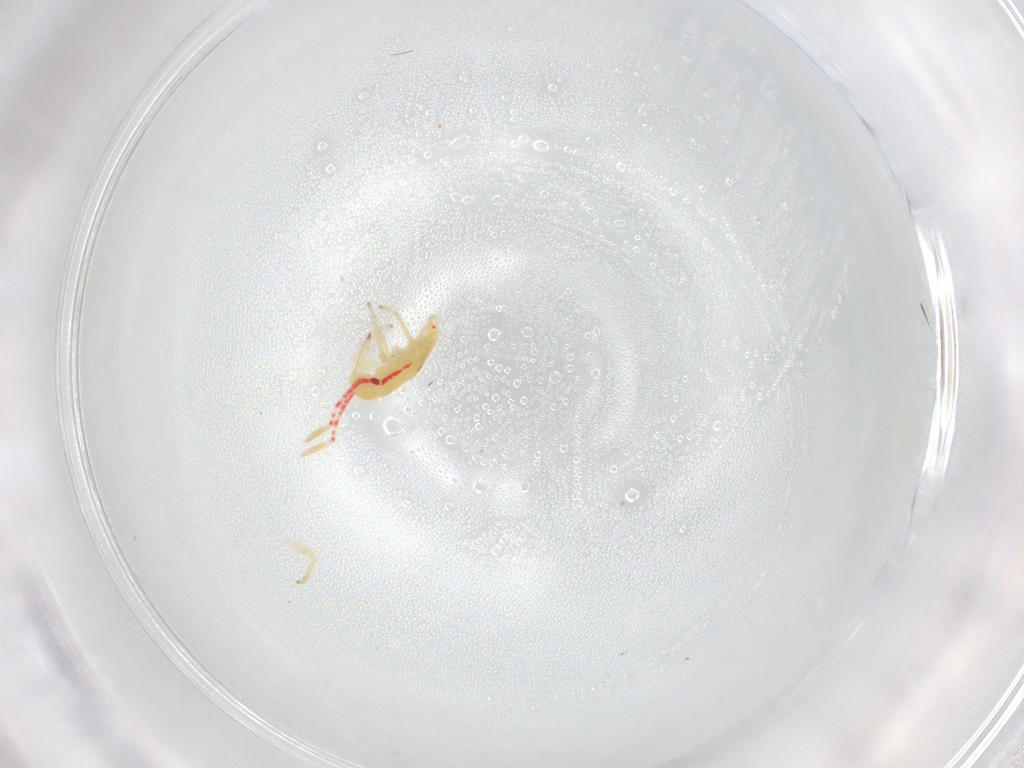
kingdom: Animalia
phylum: Arthropoda
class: Insecta
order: Hemiptera
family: Miridae
